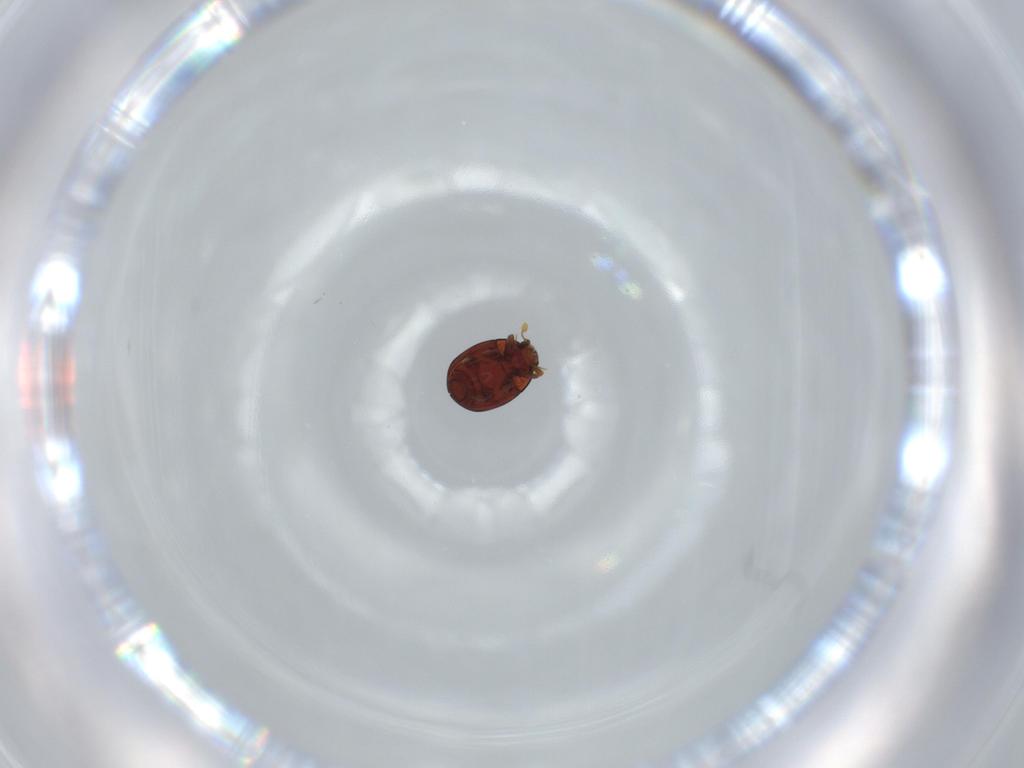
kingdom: Animalia
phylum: Arthropoda
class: Insecta
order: Coleoptera
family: Histeridae
